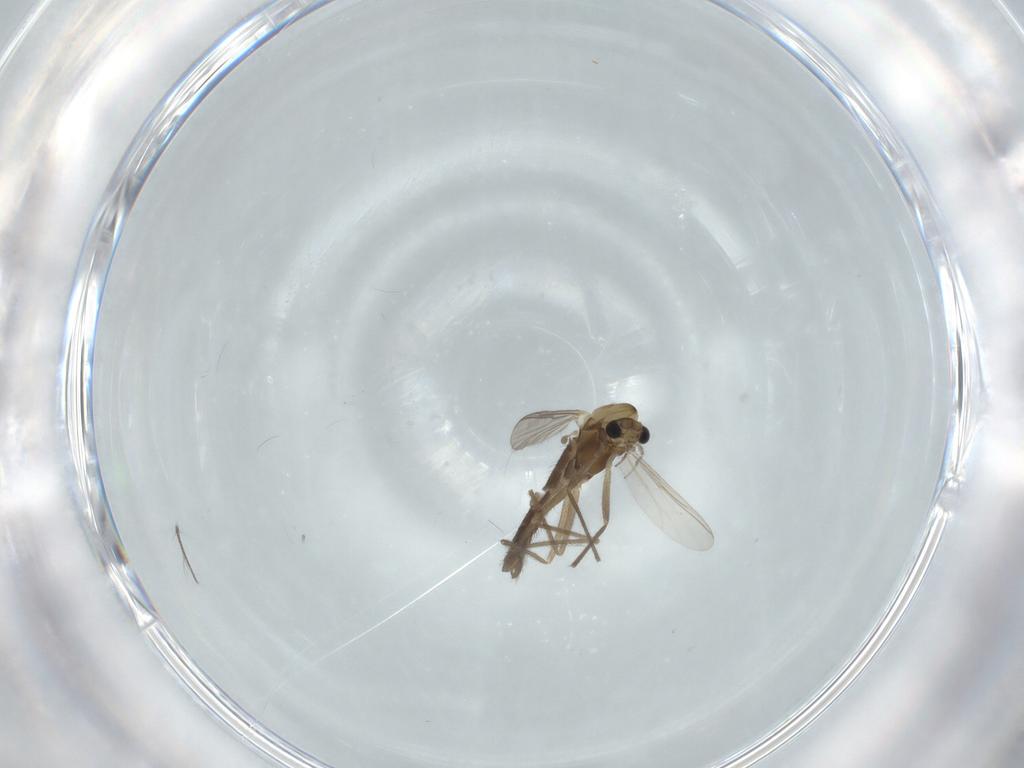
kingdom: Animalia
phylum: Arthropoda
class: Insecta
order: Diptera
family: Chironomidae
